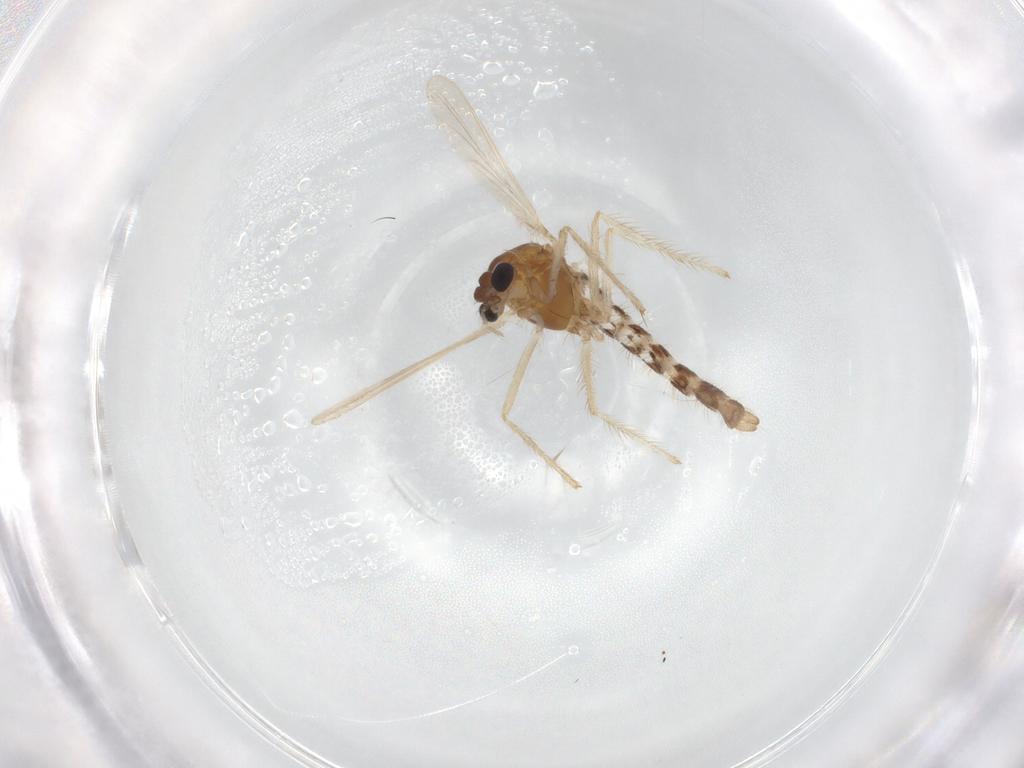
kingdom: Animalia
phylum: Arthropoda
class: Insecta
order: Diptera
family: Chironomidae
